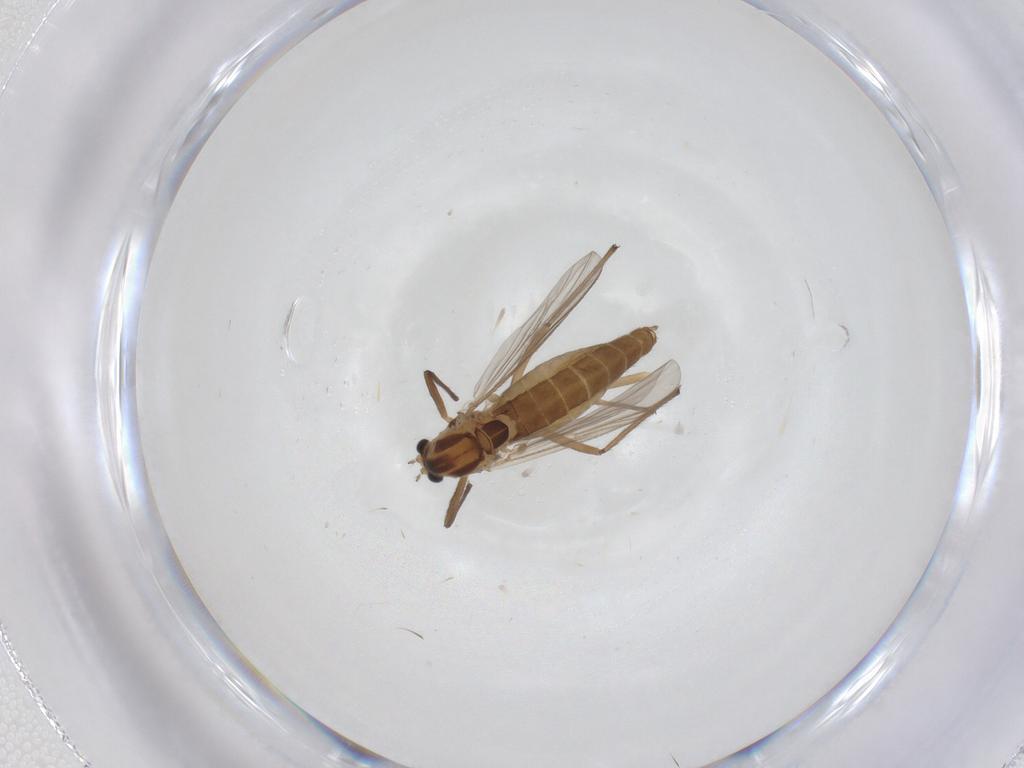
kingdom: Animalia
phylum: Arthropoda
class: Insecta
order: Diptera
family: Chironomidae
